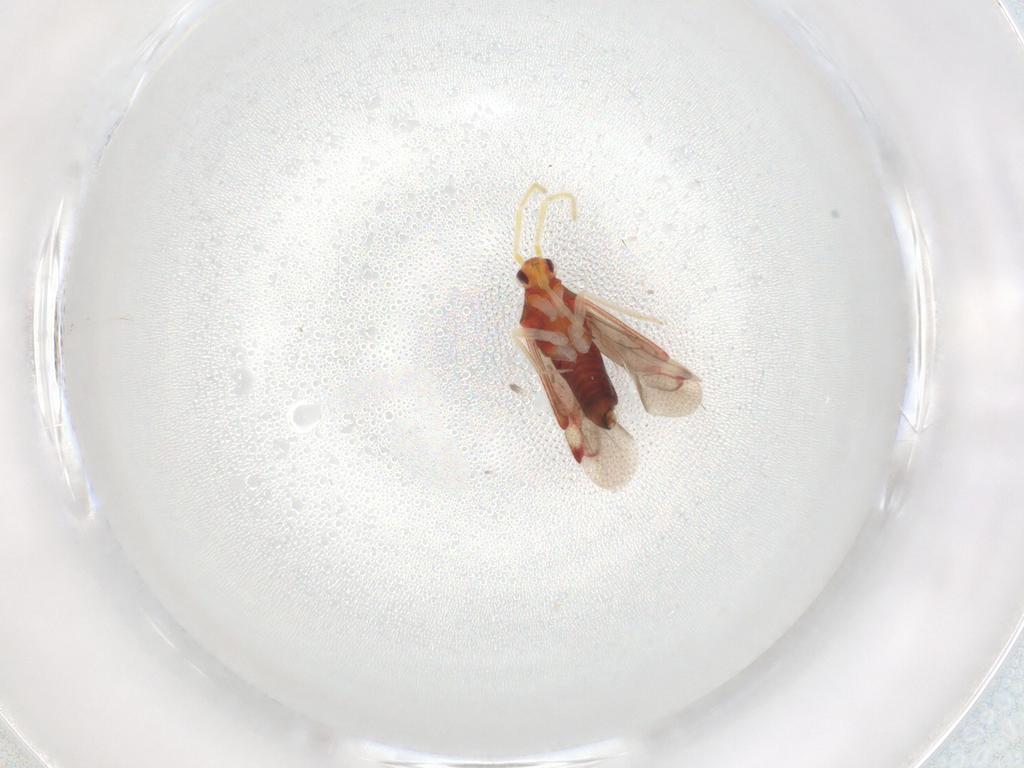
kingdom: Animalia
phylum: Arthropoda
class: Insecta
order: Hemiptera
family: Miridae
